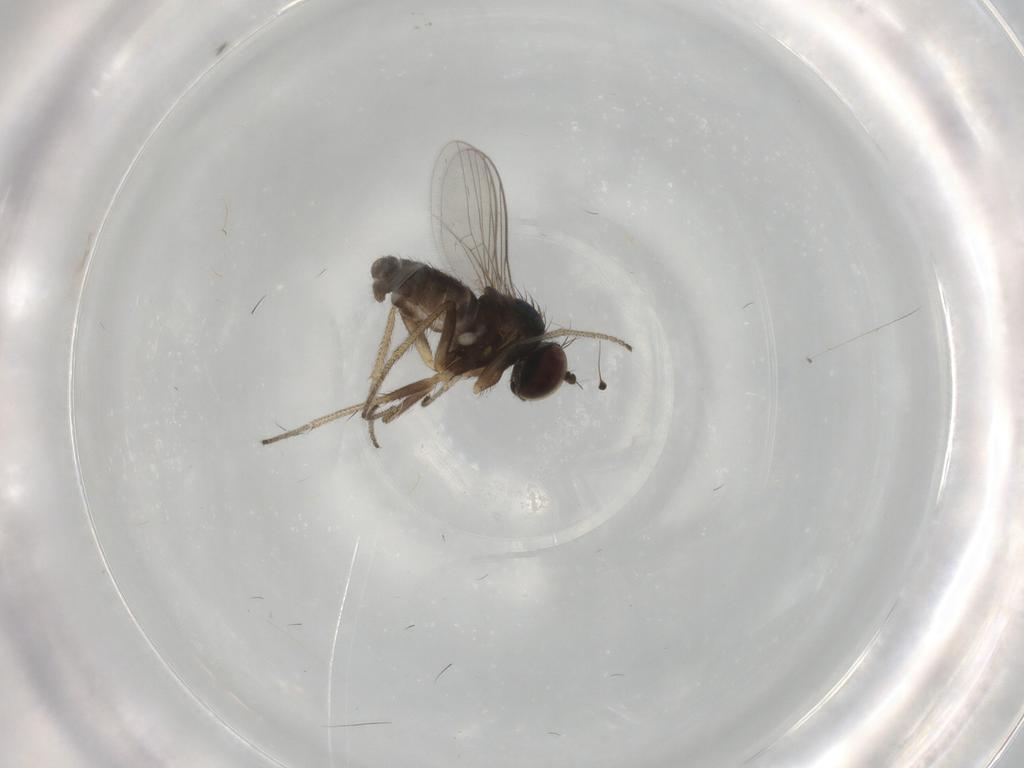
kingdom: Animalia
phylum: Arthropoda
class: Insecta
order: Diptera
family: Dolichopodidae
